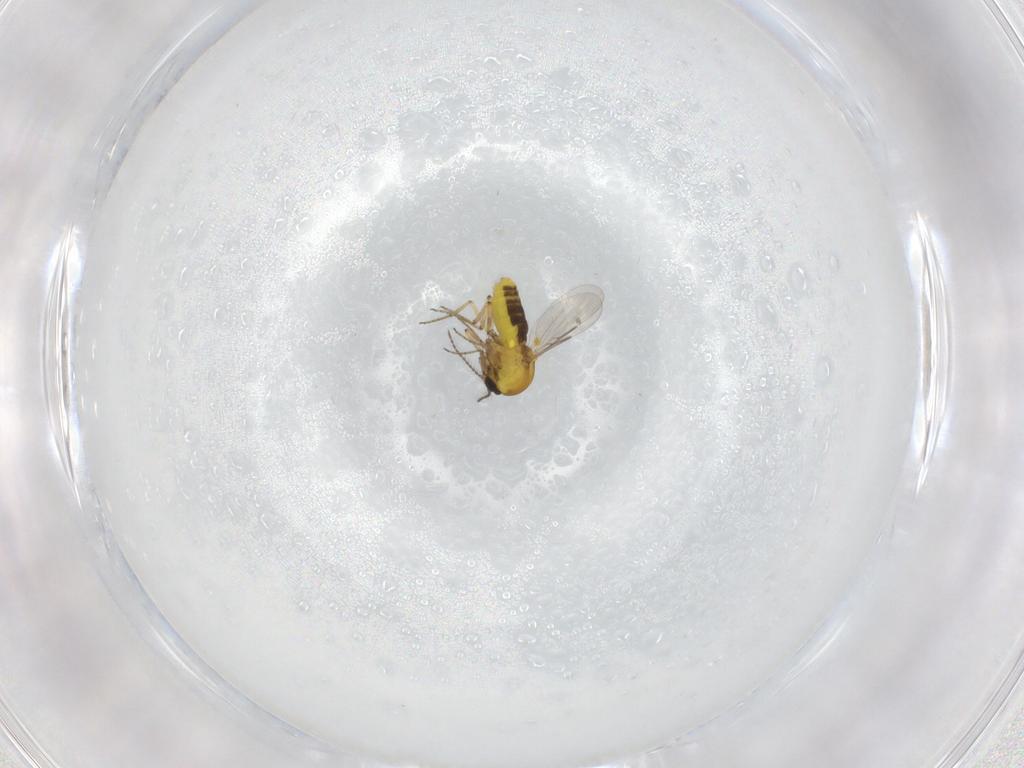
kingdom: Animalia
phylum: Arthropoda
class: Insecta
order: Diptera
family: Ceratopogonidae
